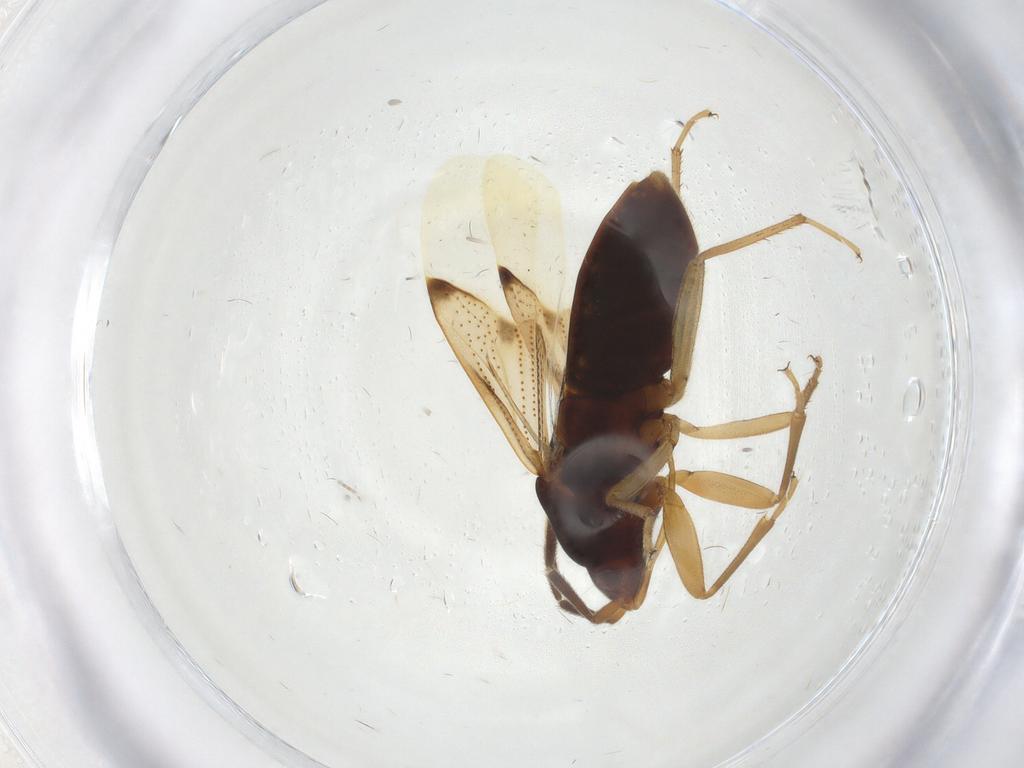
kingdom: Animalia
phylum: Arthropoda
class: Insecta
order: Hemiptera
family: Rhyparochromidae
